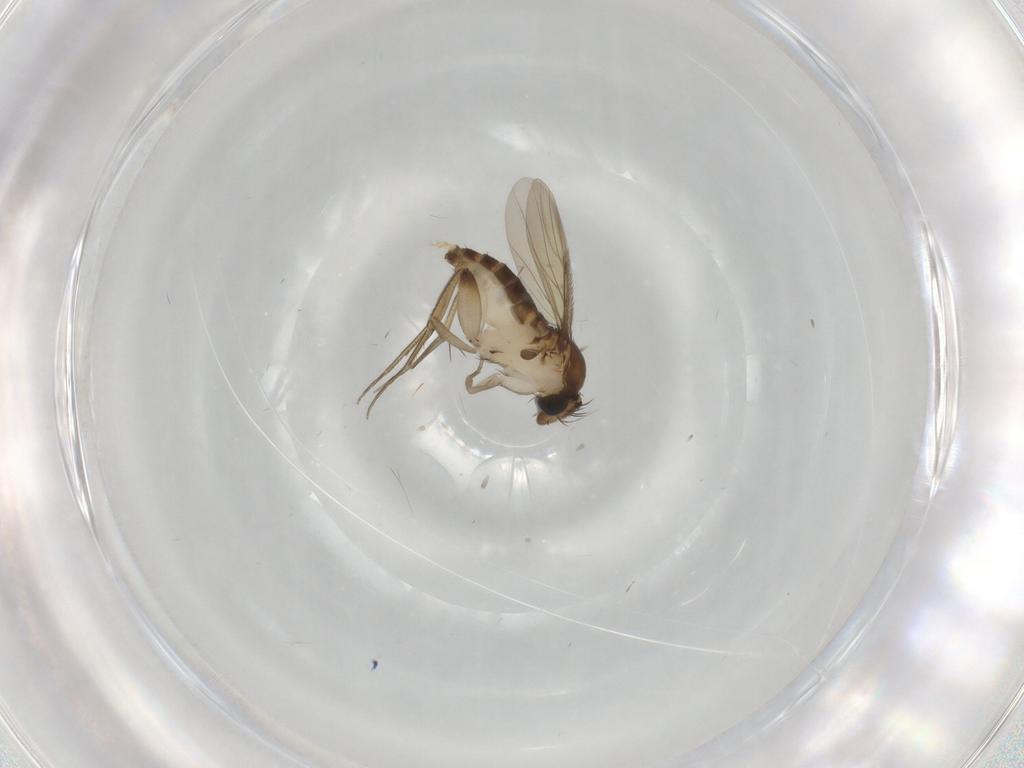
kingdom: Animalia
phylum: Arthropoda
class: Insecta
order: Diptera
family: Phoridae
